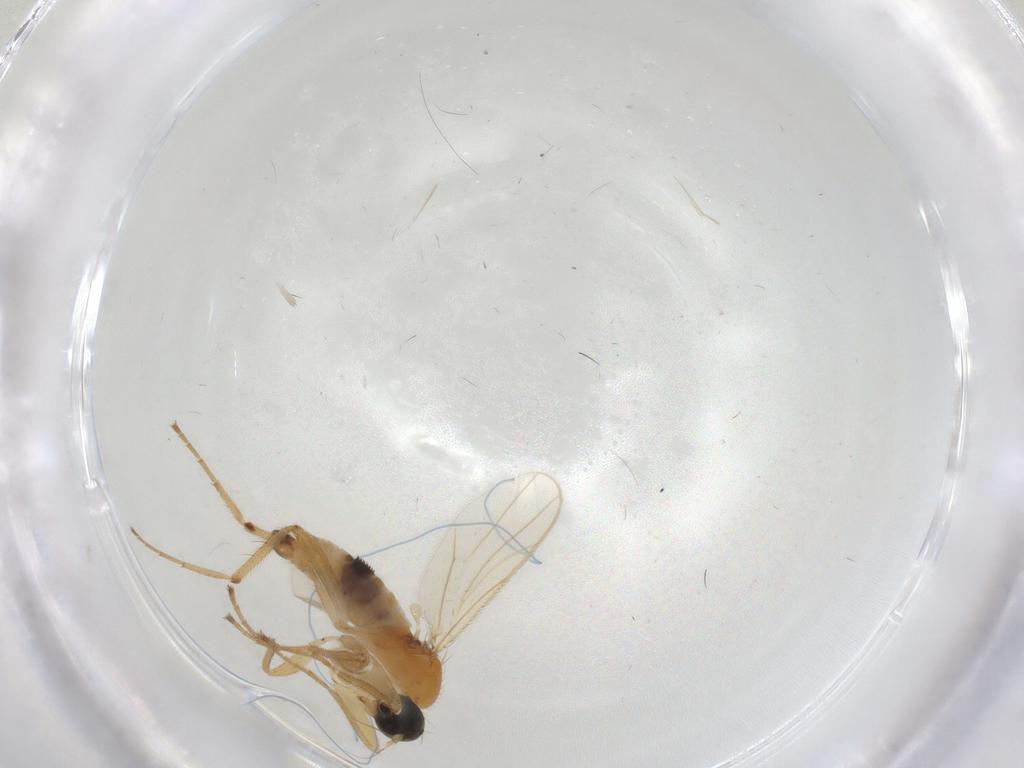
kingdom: Animalia
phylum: Arthropoda
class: Insecta
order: Diptera
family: Hybotidae
